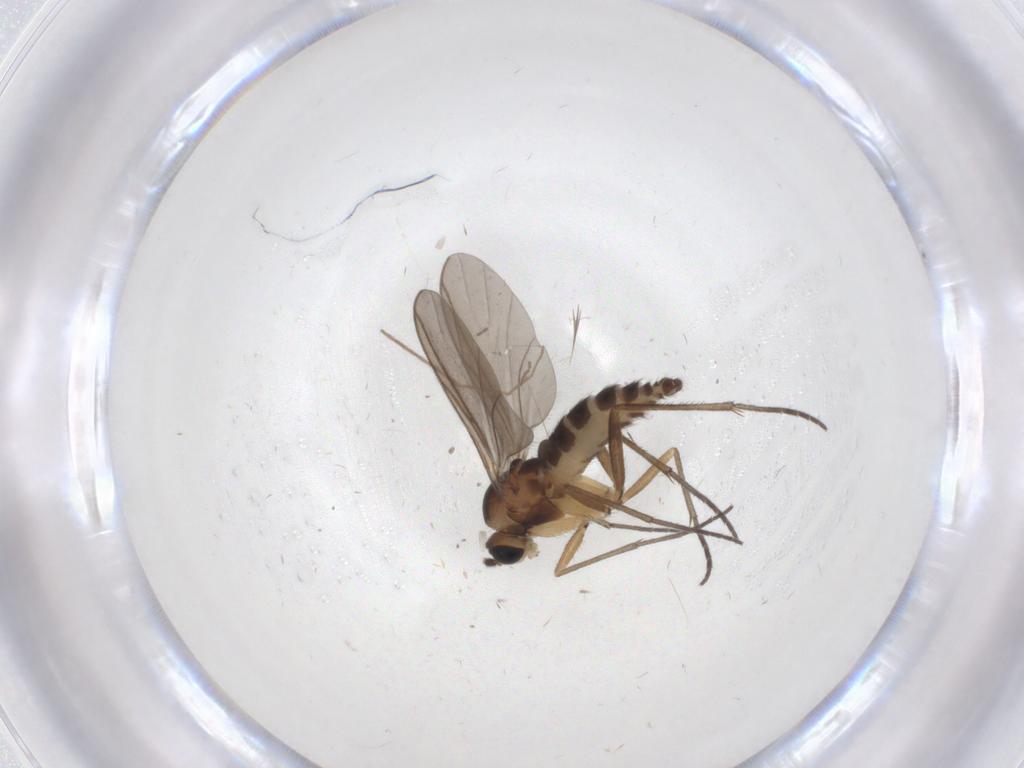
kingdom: Animalia
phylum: Arthropoda
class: Insecta
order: Diptera
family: Sciaridae
